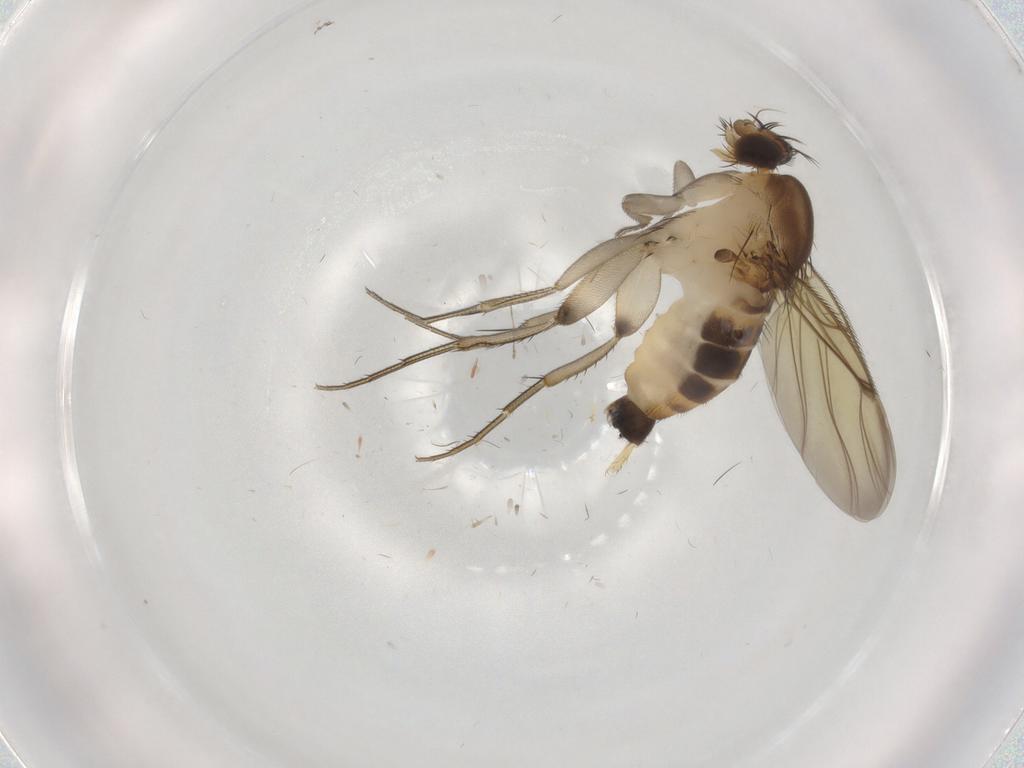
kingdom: Animalia
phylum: Arthropoda
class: Insecta
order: Diptera
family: Phoridae
